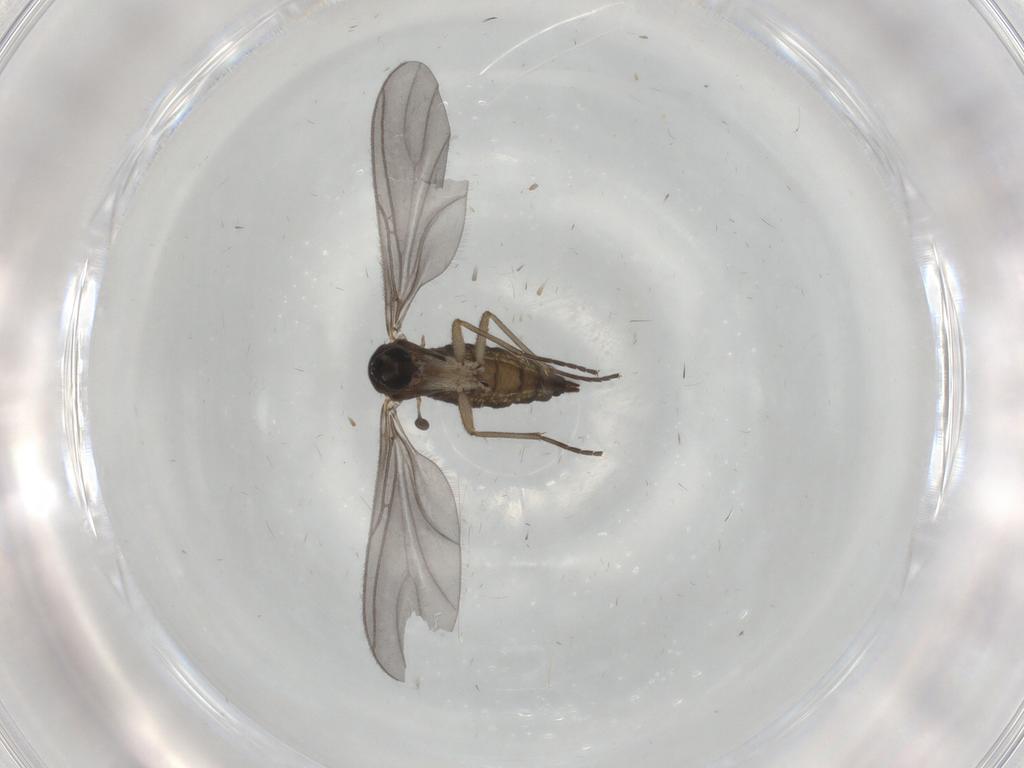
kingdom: Animalia
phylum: Arthropoda
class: Insecta
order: Diptera
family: Sciaridae
